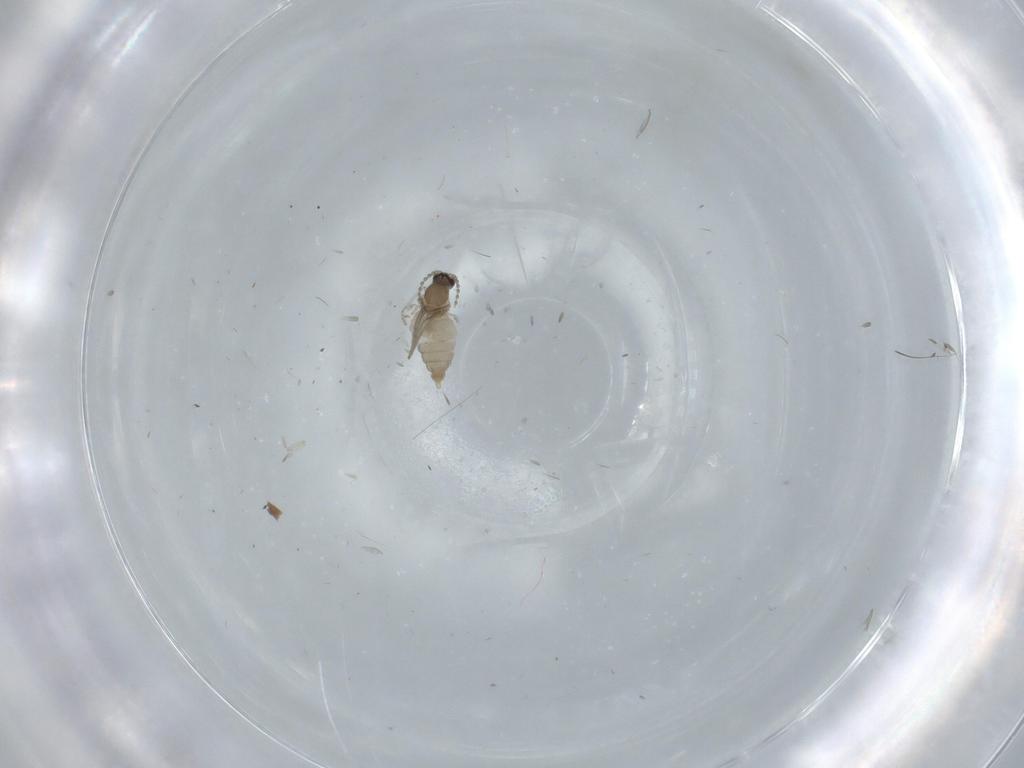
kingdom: Animalia
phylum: Arthropoda
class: Insecta
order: Diptera
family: Cecidomyiidae
